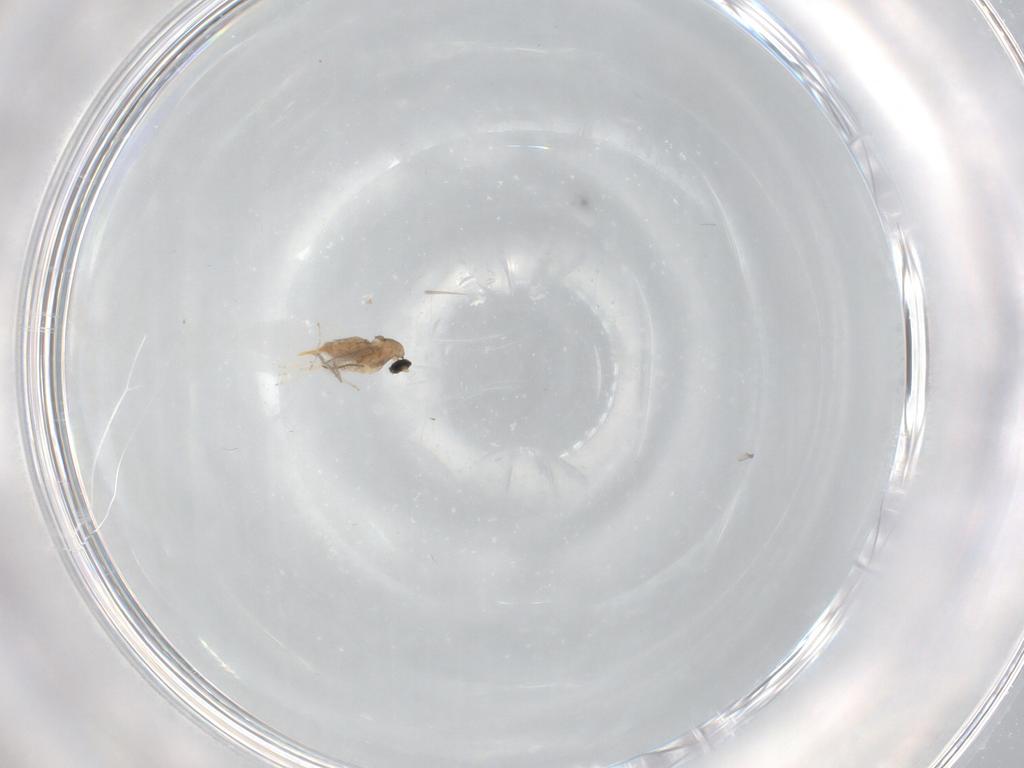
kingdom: Animalia
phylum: Arthropoda
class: Insecta
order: Diptera
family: Cecidomyiidae
